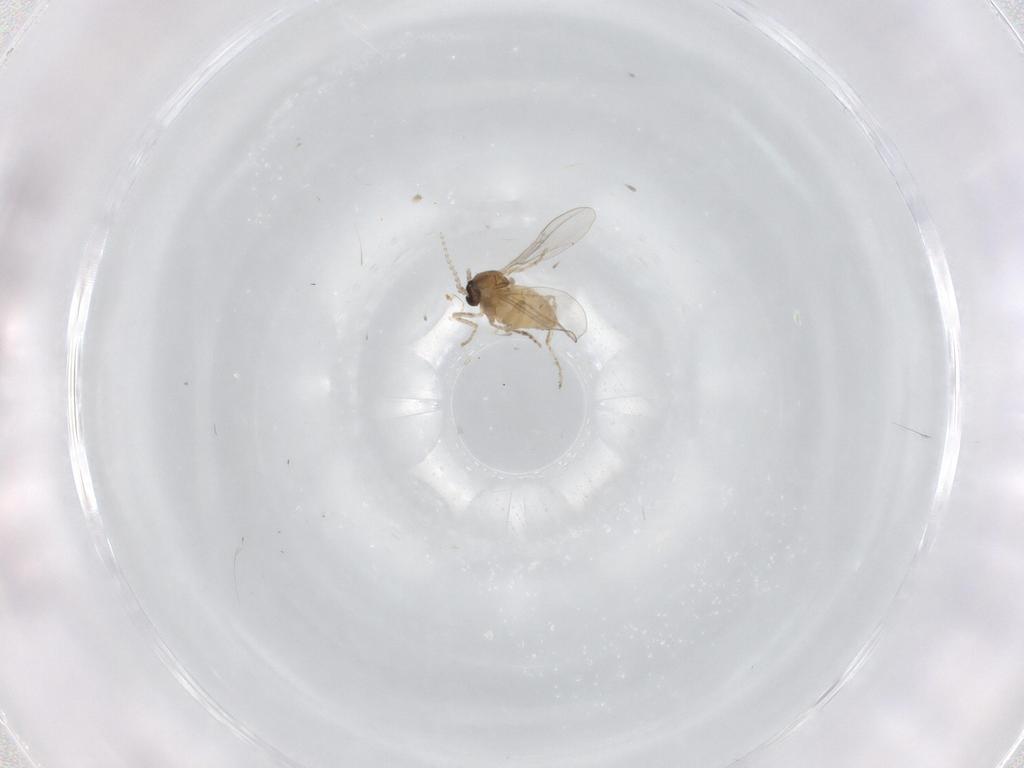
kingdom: Animalia
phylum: Arthropoda
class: Insecta
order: Diptera
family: Cecidomyiidae
